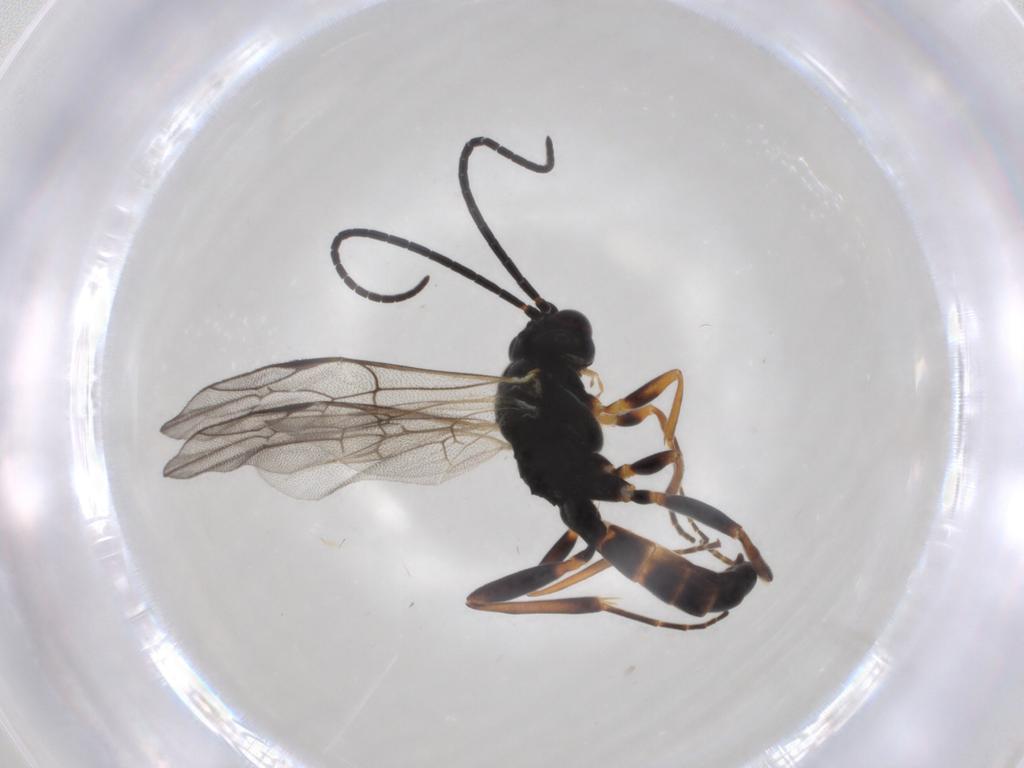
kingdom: Animalia
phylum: Arthropoda
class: Insecta
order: Hymenoptera
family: Ichneumonidae
